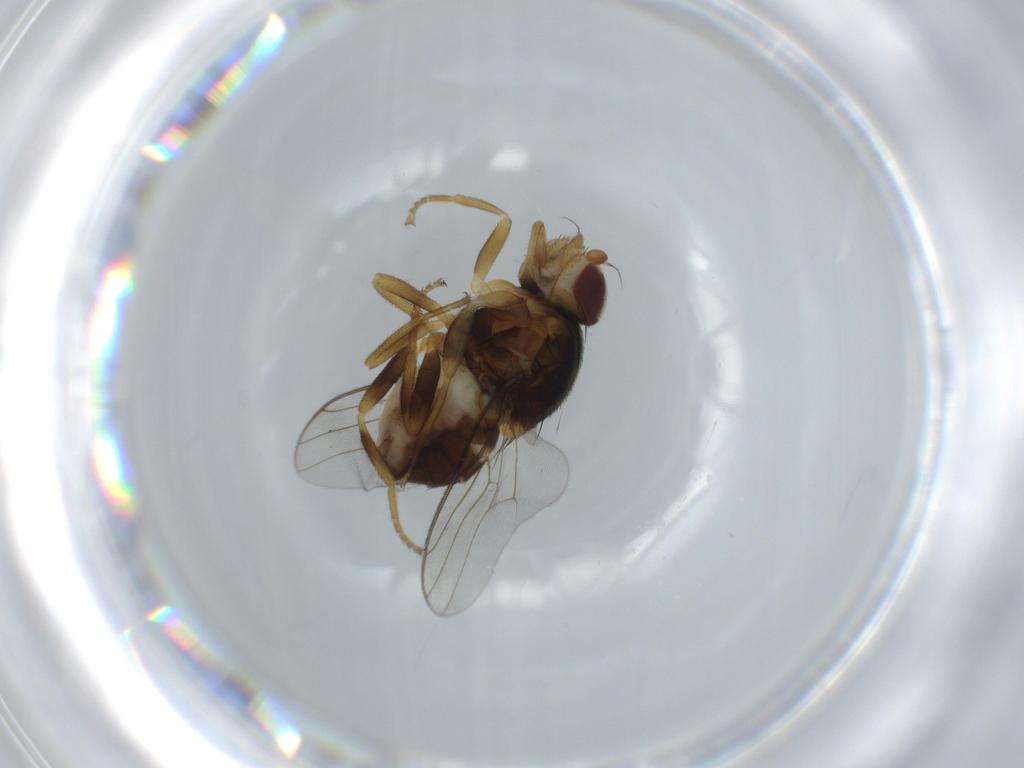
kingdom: Animalia
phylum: Arthropoda
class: Insecta
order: Diptera
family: Chloropidae
